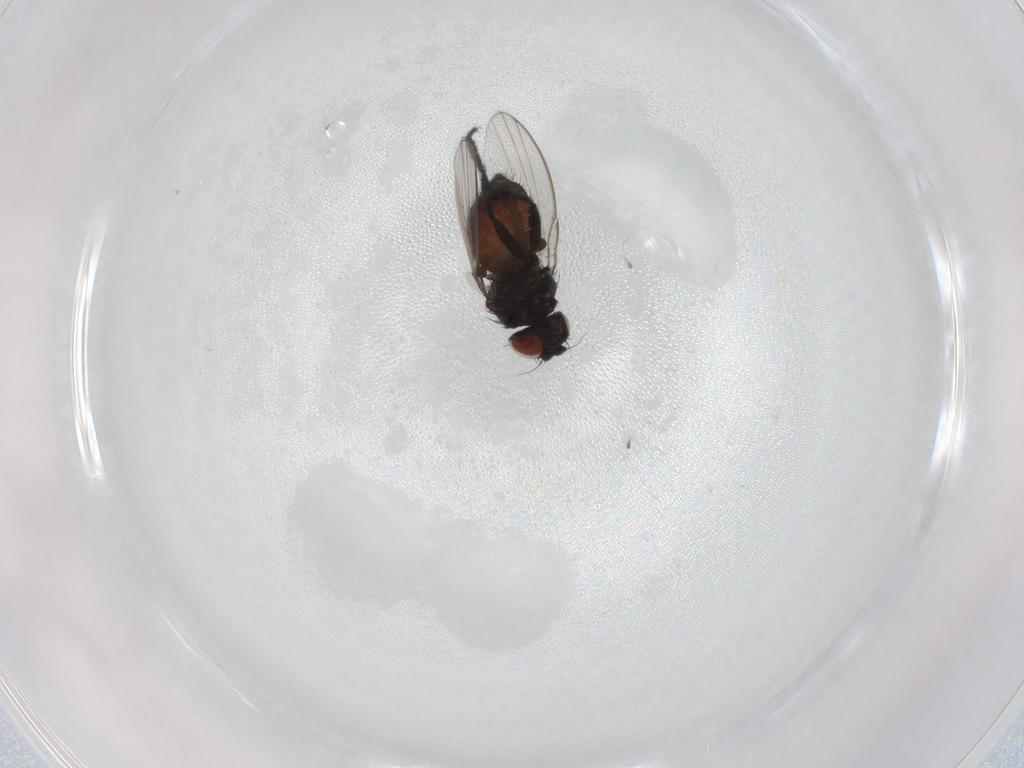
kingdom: Animalia
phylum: Arthropoda
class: Insecta
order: Diptera
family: Milichiidae
